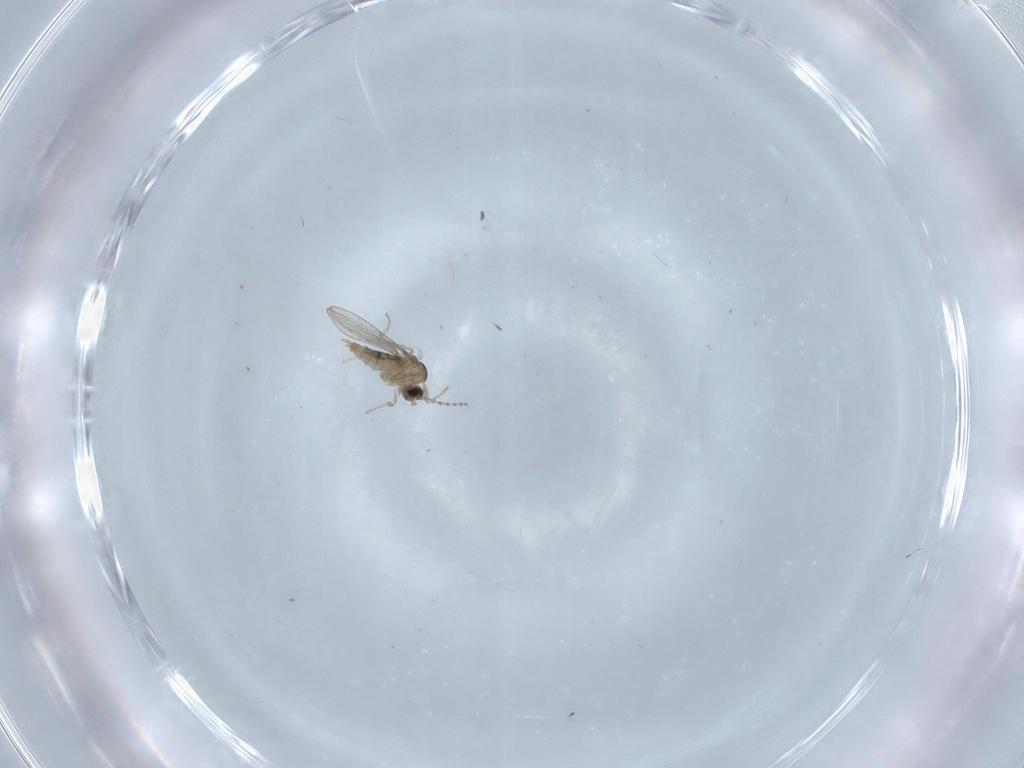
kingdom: Animalia
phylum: Arthropoda
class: Insecta
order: Diptera
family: Cecidomyiidae
